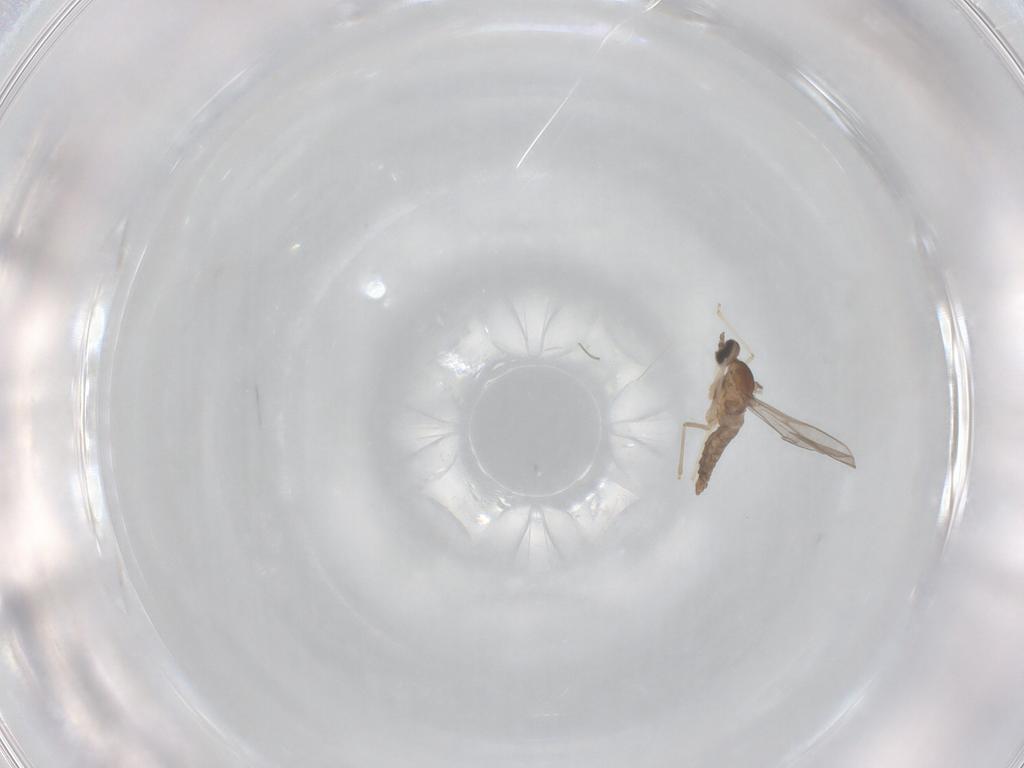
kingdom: Animalia
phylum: Arthropoda
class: Insecta
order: Diptera
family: Cecidomyiidae
